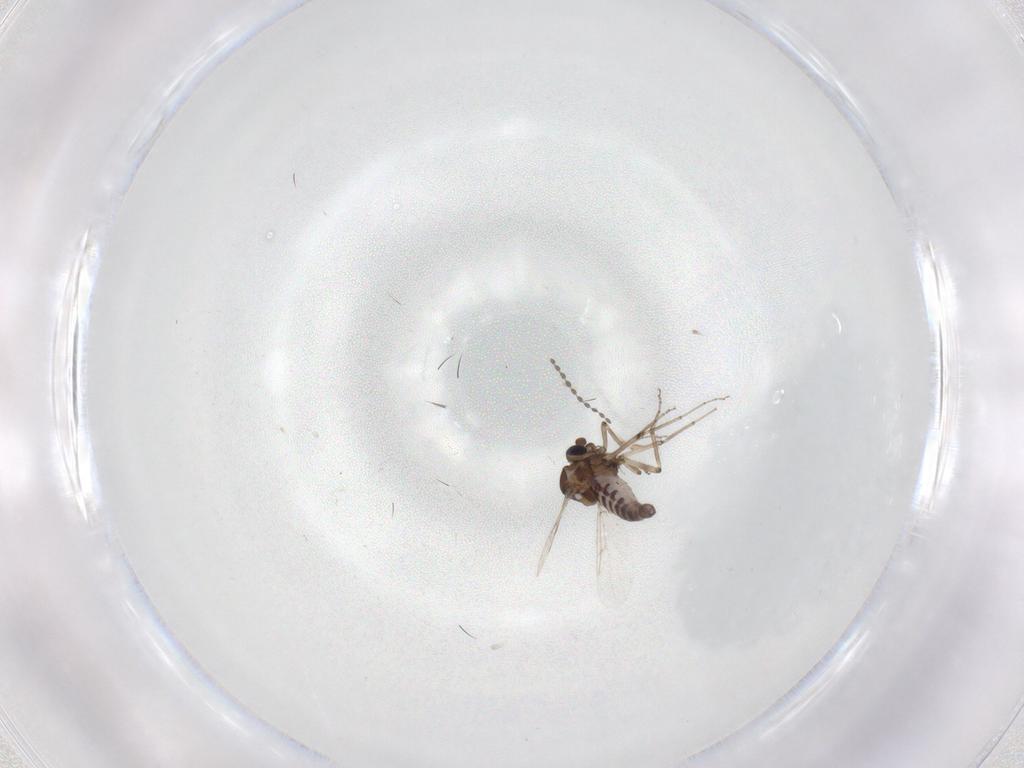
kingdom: Animalia
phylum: Arthropoda
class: Insecta
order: Diptera
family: Ceratopogonidae
